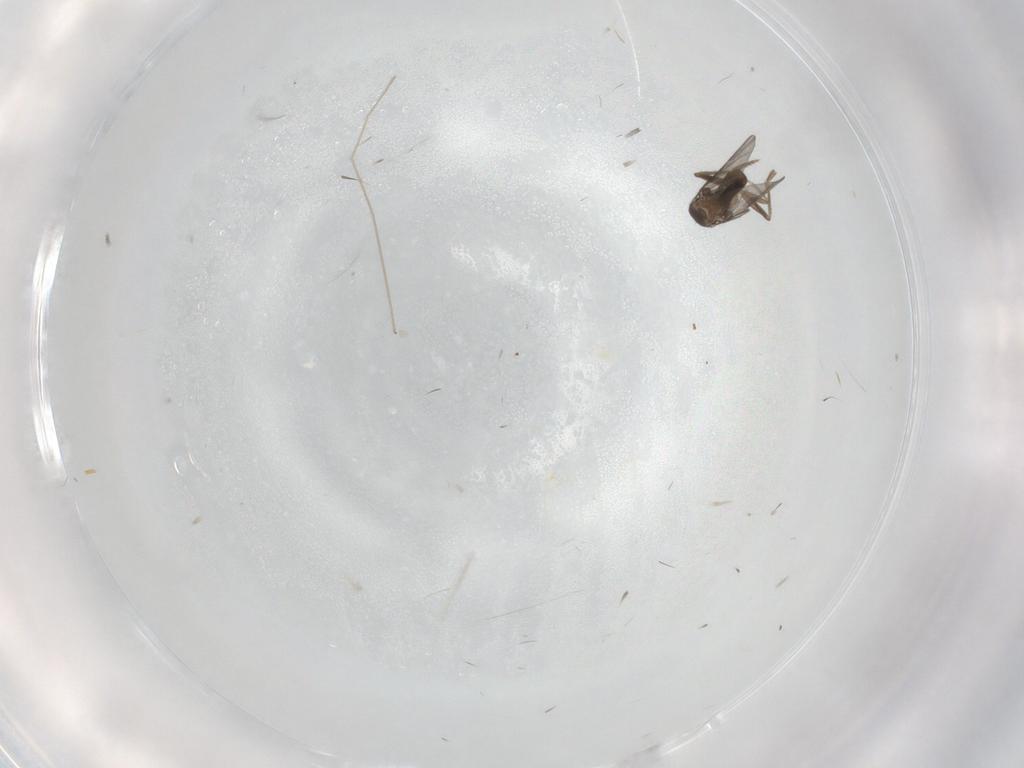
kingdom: Animalia
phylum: Arthropoda
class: Insecta
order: Diptera
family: Chironomidae
